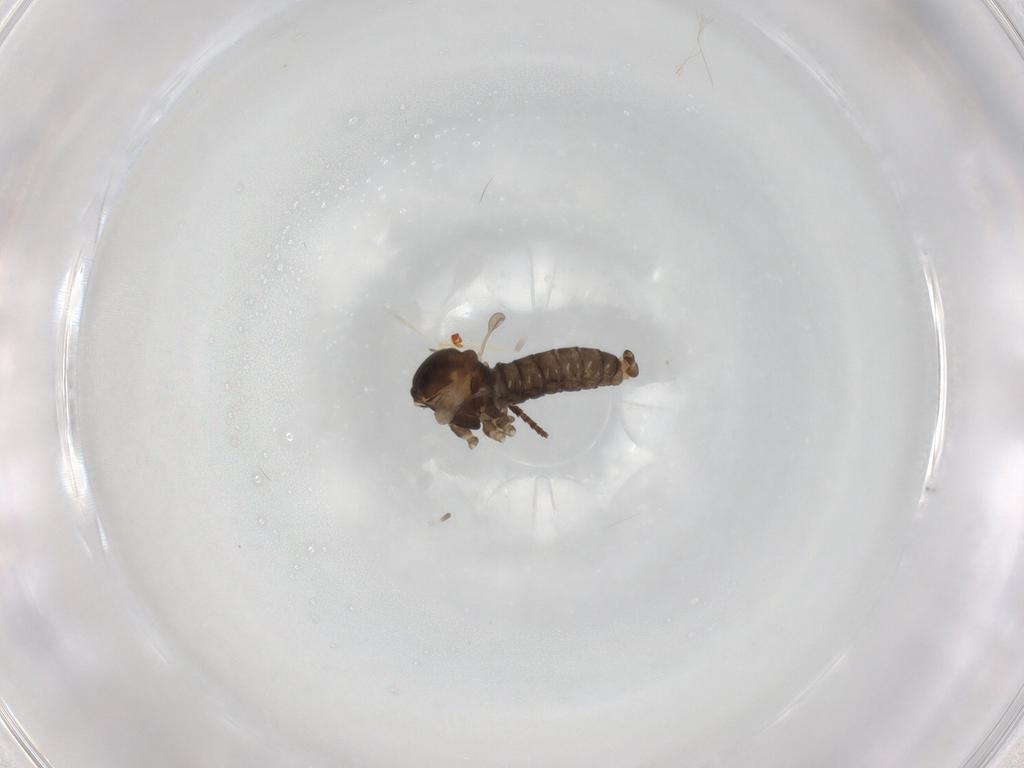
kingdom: Animalia
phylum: Arthropoda
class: Insecta
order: Diptera
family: Cecidomyiidae
